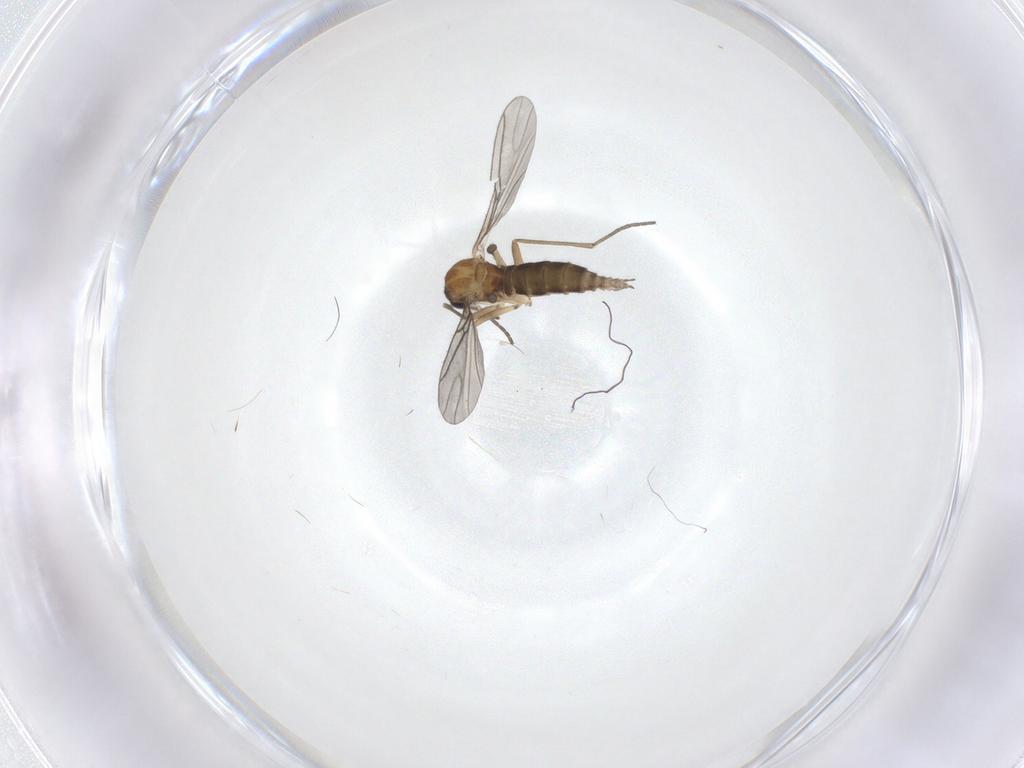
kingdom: Animalia
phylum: Arthropoda
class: Insecta
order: Diptera
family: Sciaridae
